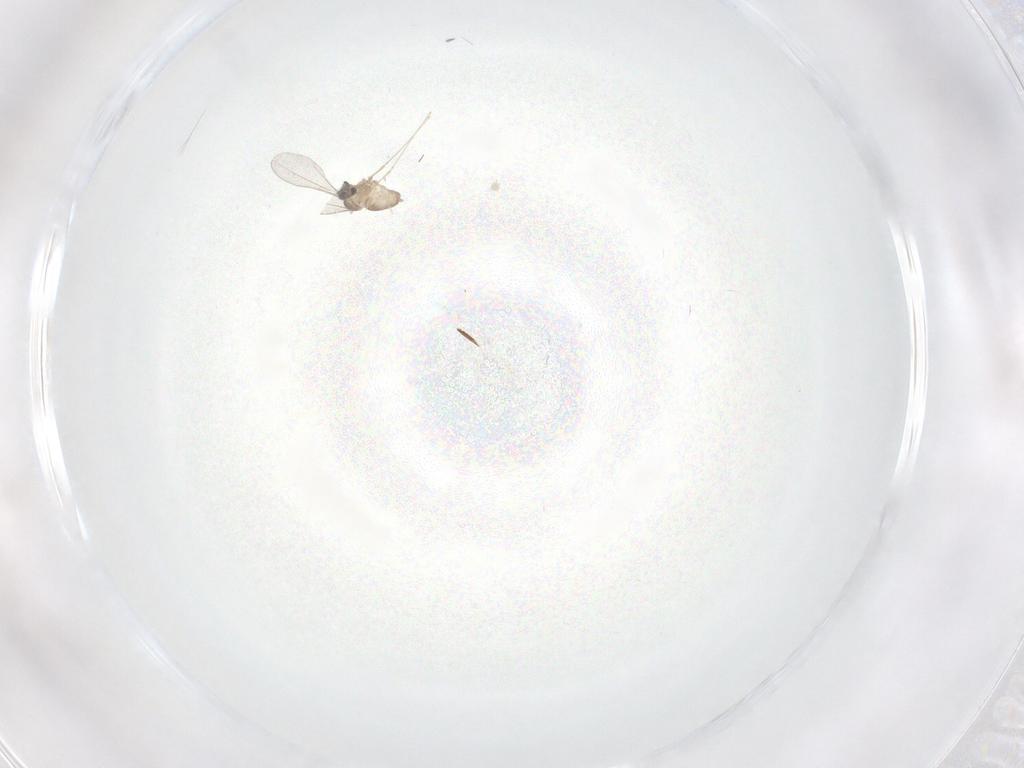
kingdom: Animalia
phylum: Arthropoda
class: Insecta
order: Diptera
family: Cecidomyiidae
